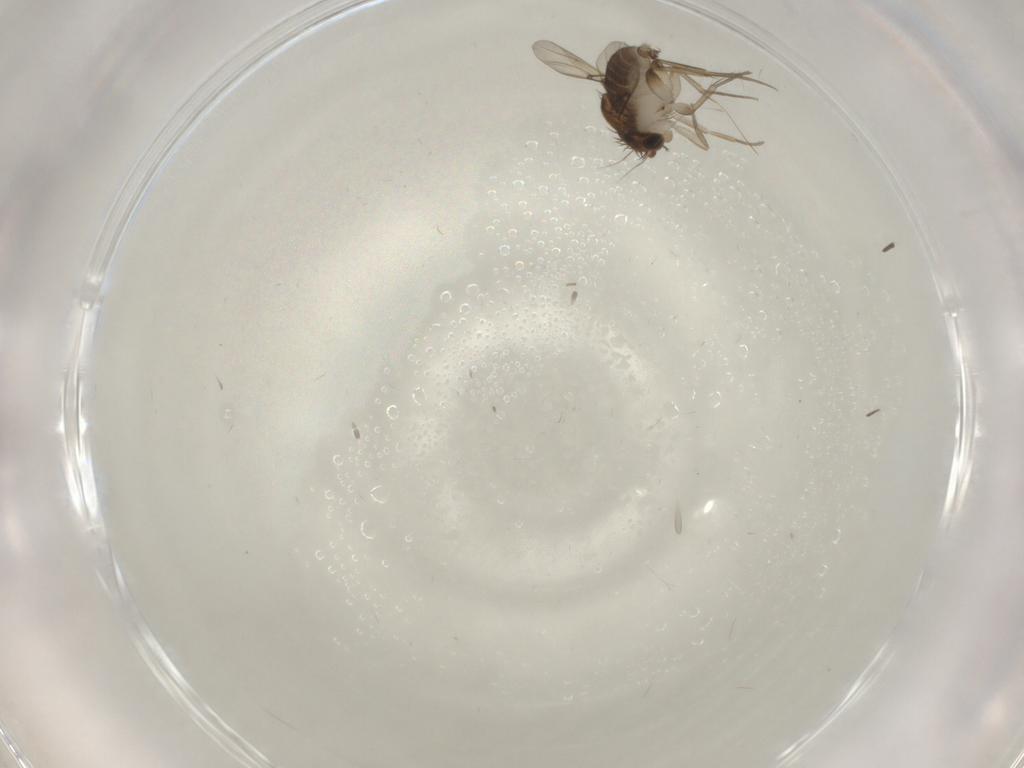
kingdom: Animalia
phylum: Arthropoda
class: Insecta
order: Diptera
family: Phoridae
